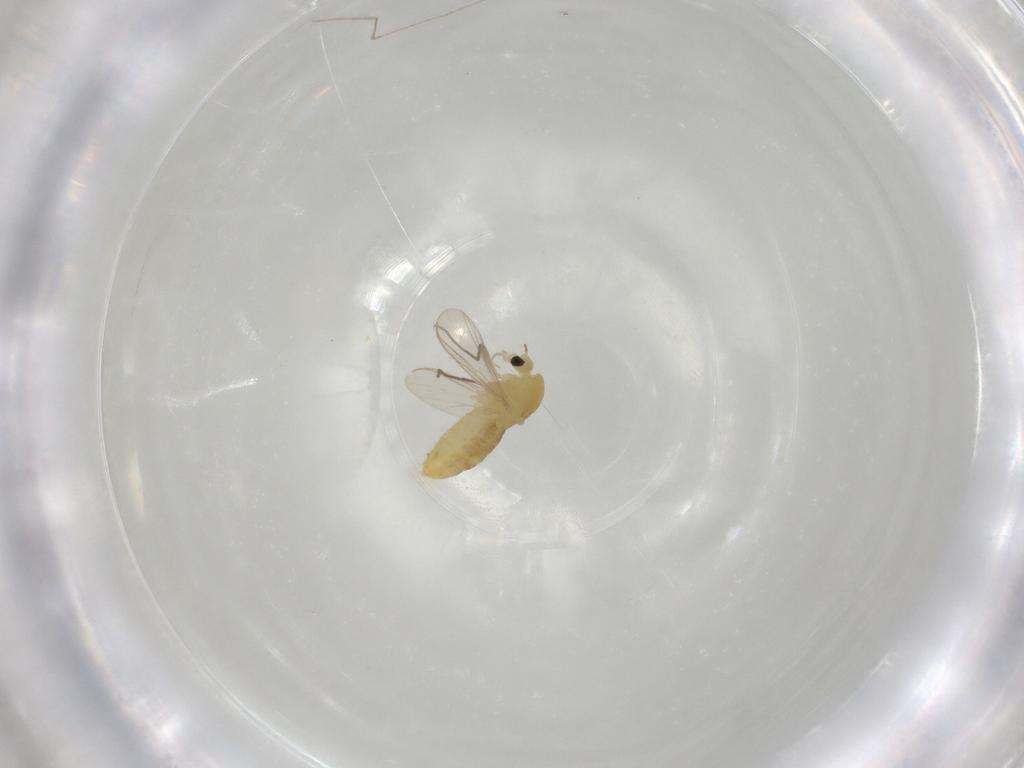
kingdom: Animalia
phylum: Arthropoda
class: Insecta
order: Diptera
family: Chironomidae
